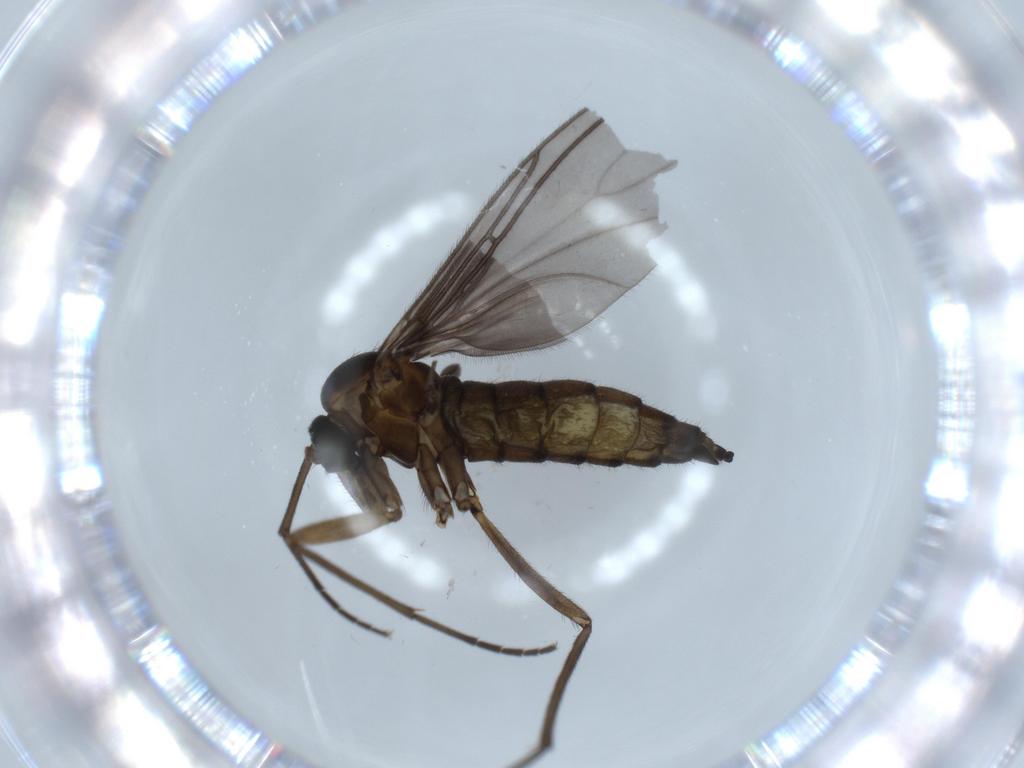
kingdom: Animalia
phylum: Arthropoda
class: Insecta
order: Diptera
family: Sciaridae
